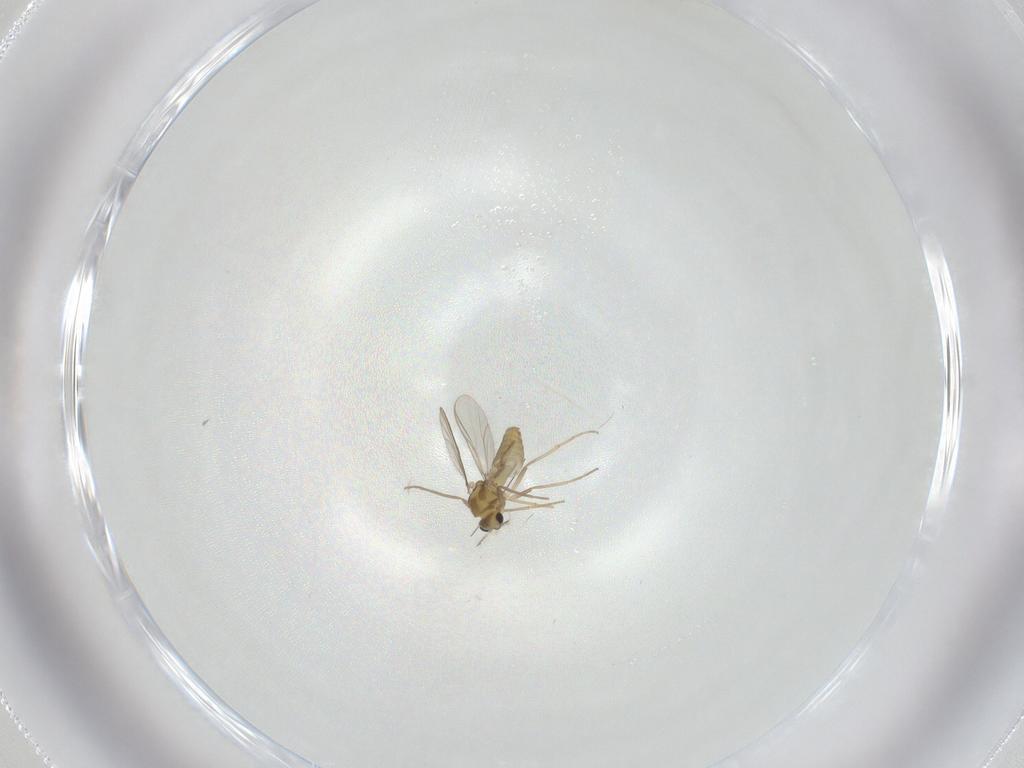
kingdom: Animalia
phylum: Arthropoda
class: Insecta
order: Diptera
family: Chironomidae
